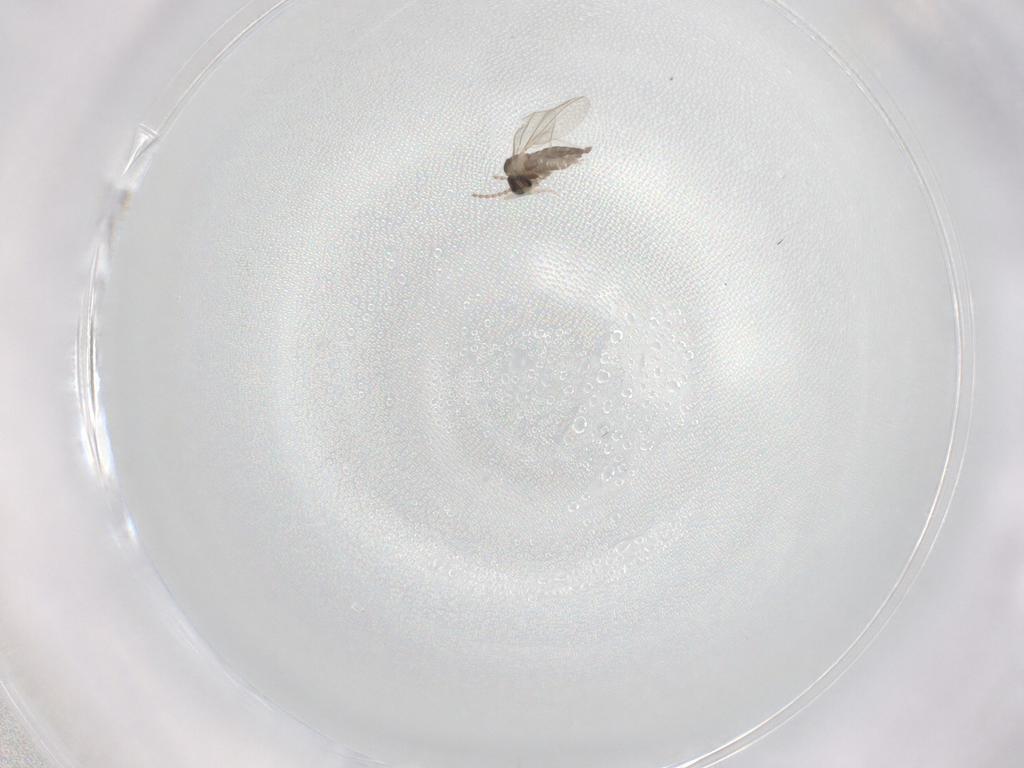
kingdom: Animalia
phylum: Arthropoda
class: Insecta
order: Diptera
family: Cecidomyiidae
